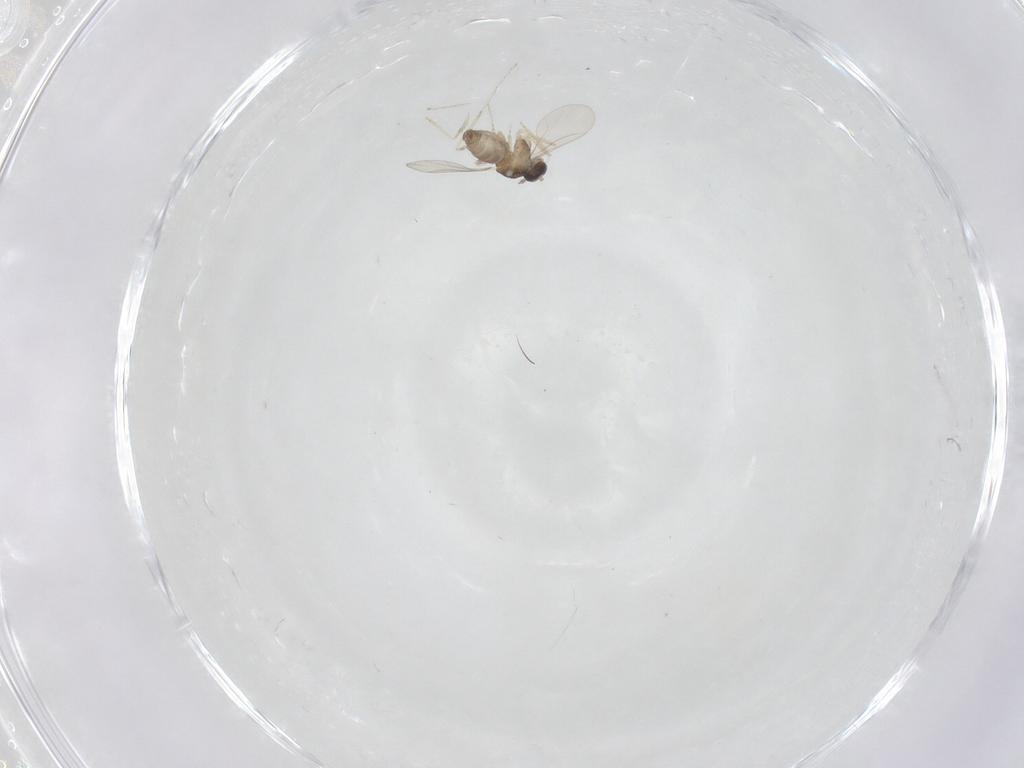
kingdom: Animalia
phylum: Arthropoda
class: Insecta
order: Diptera
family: Cecidomyiidae
